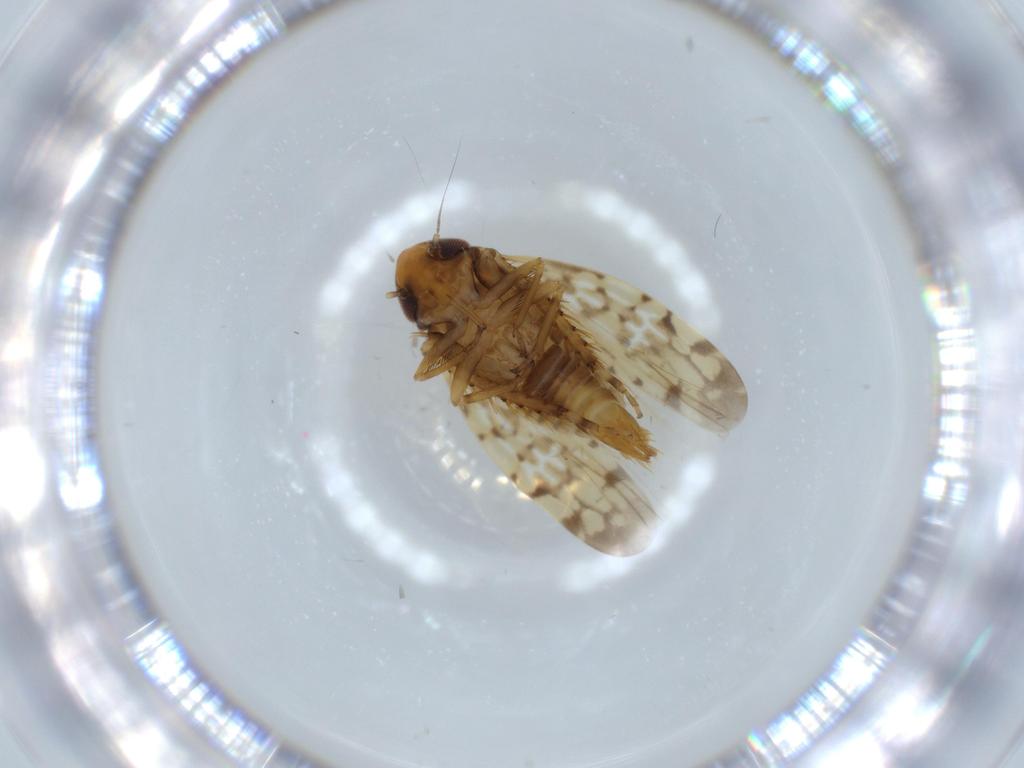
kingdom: Animalia
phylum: Arthropoda
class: Insecta
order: Hemiptera
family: Cicadellidae
